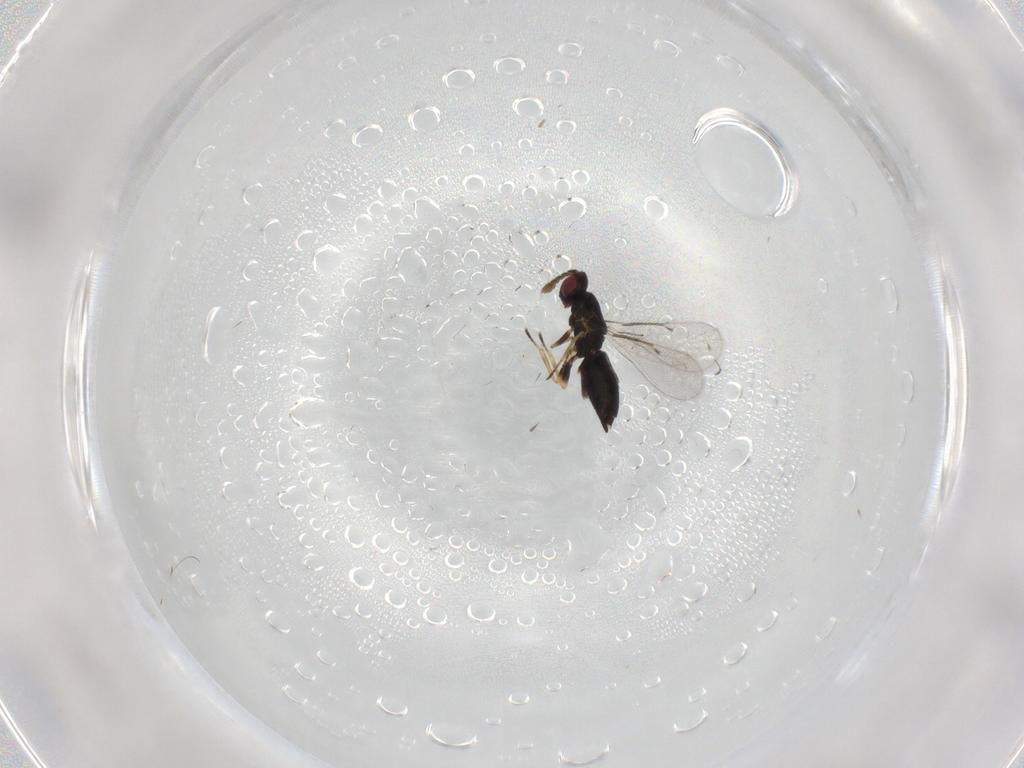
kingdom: Animalia
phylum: Arthropoda
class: Insecta
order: Hymenoptera
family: Eulophidae
